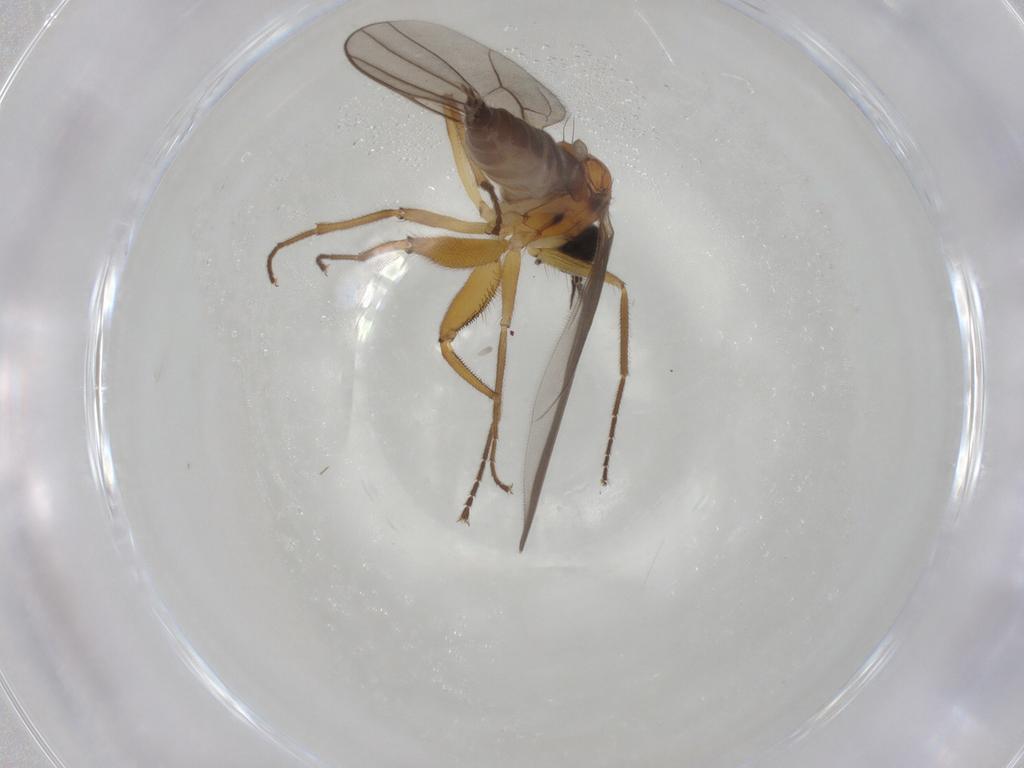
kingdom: Animalia
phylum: Arthropoda
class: Insecta
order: Diptera
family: Hybotidae
